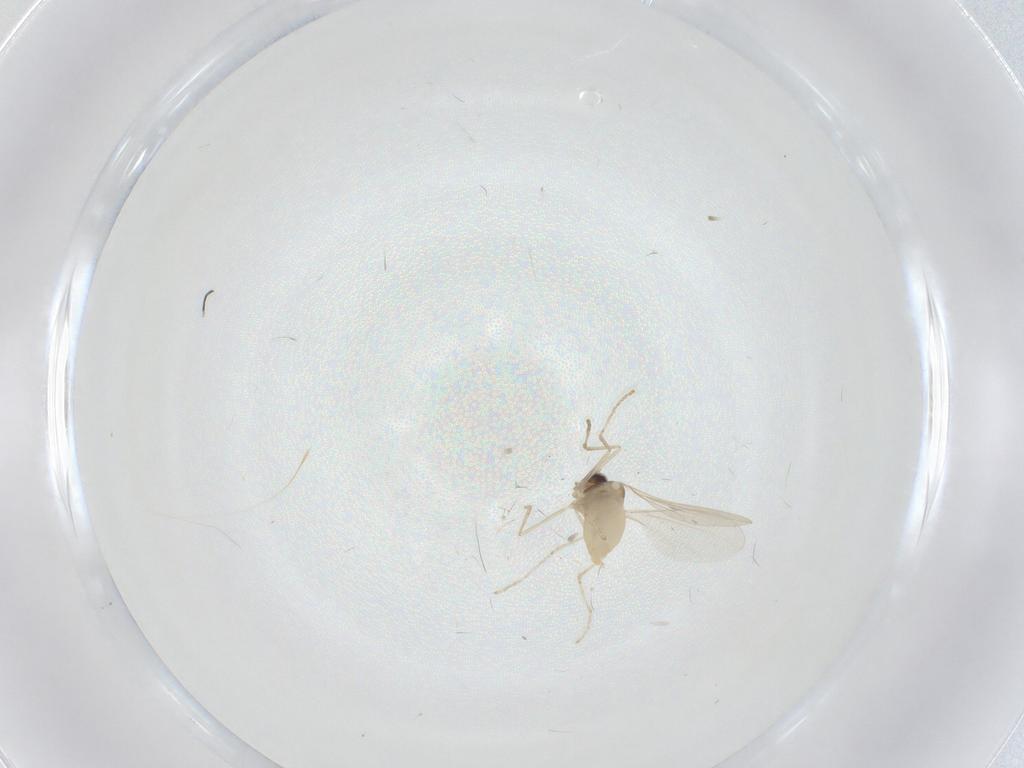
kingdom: Animalia
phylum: Arthropoda
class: Insecta
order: Diptera
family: Cecidomyiidae
